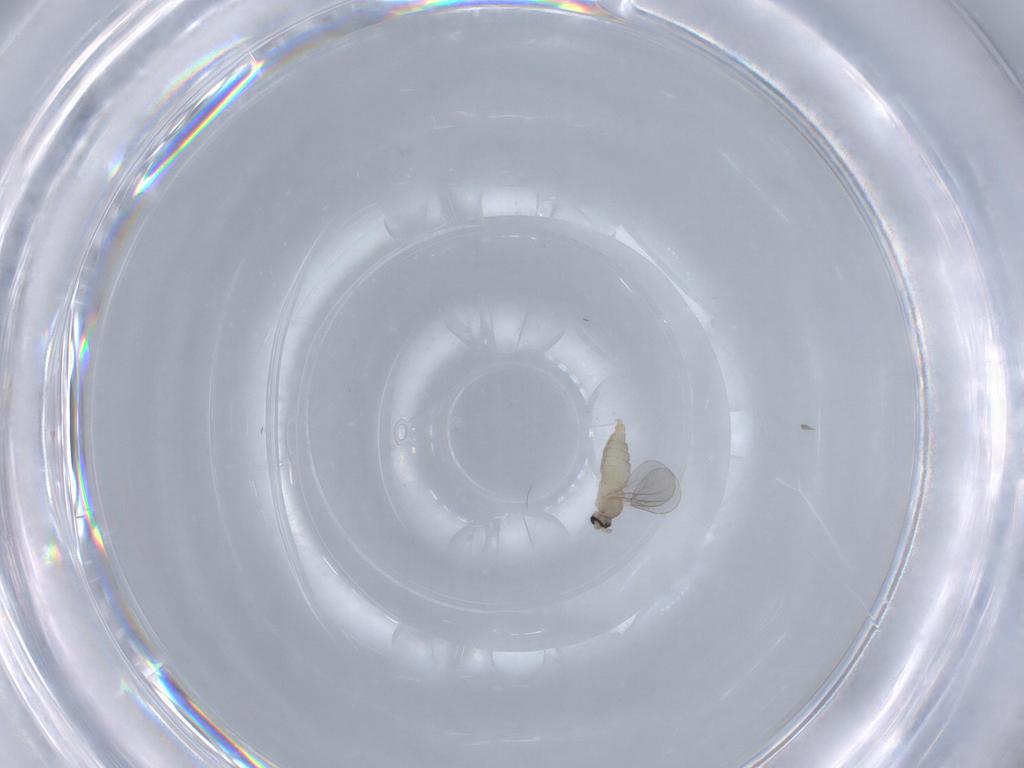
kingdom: Animalia
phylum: Arthropoda
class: Insecta
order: Diptera
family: Cecidomyiidae
